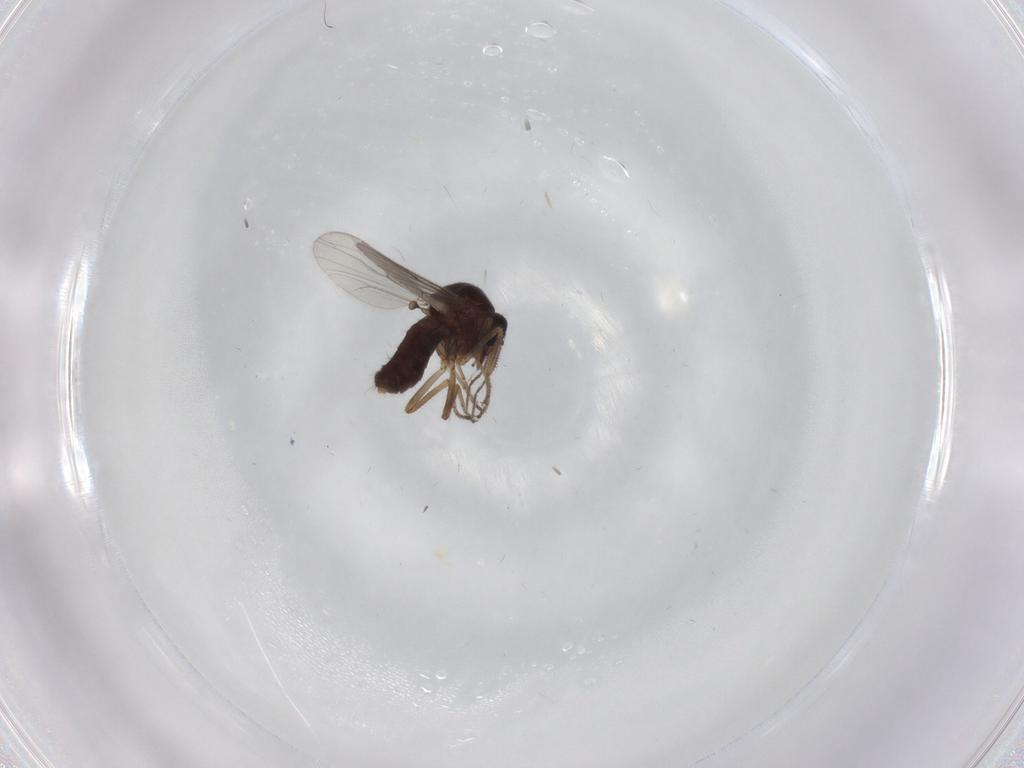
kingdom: Animalia
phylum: Arthropoda
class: Insecta
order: Diptera
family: Ceratopogonidae
